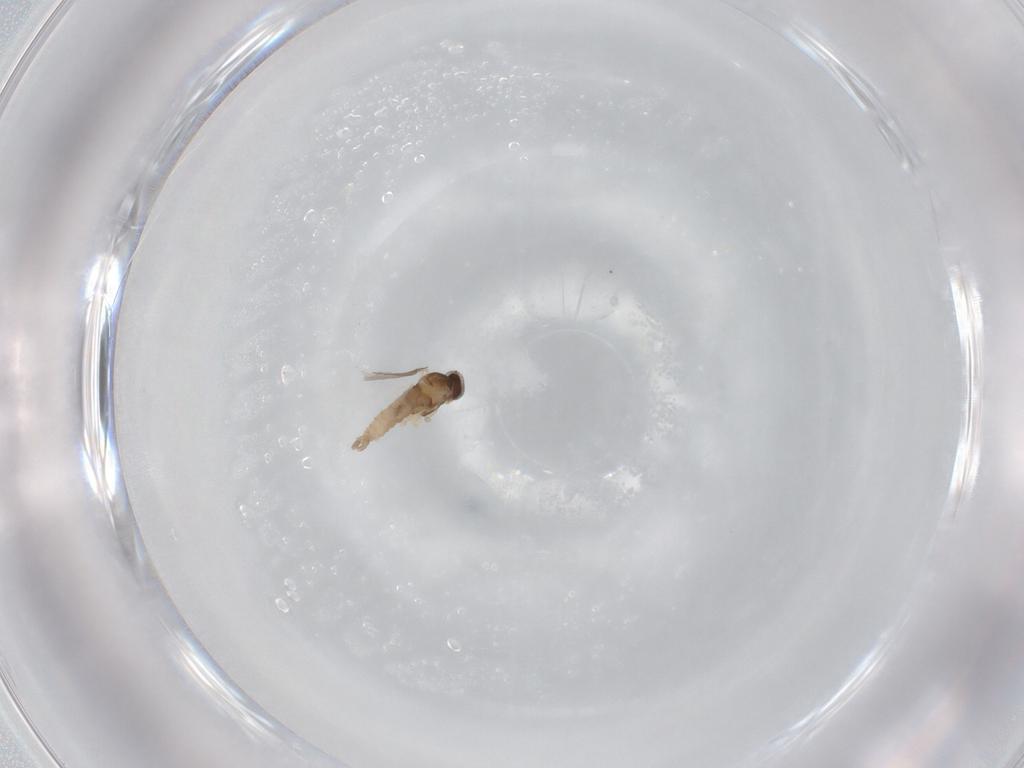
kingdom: Animalia
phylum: Arthropoda
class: Insecta
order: Diptera
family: Cecidomyiidae
